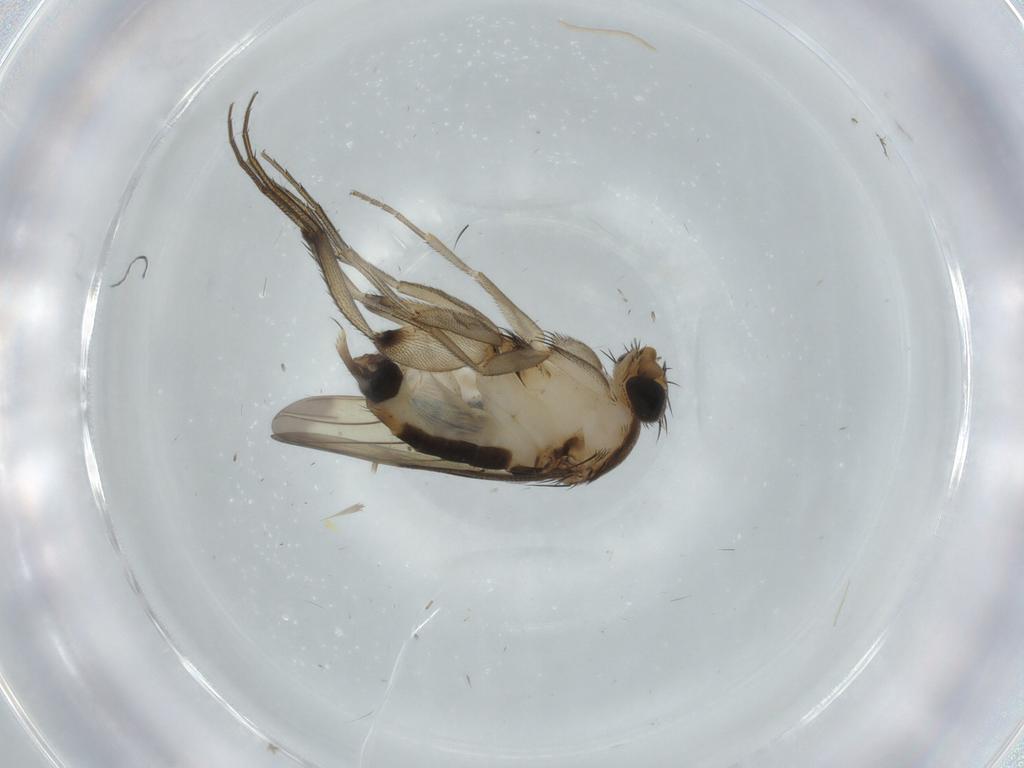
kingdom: Animalia
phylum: Arthropoda
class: Insecta
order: Diptera
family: Phoridae
